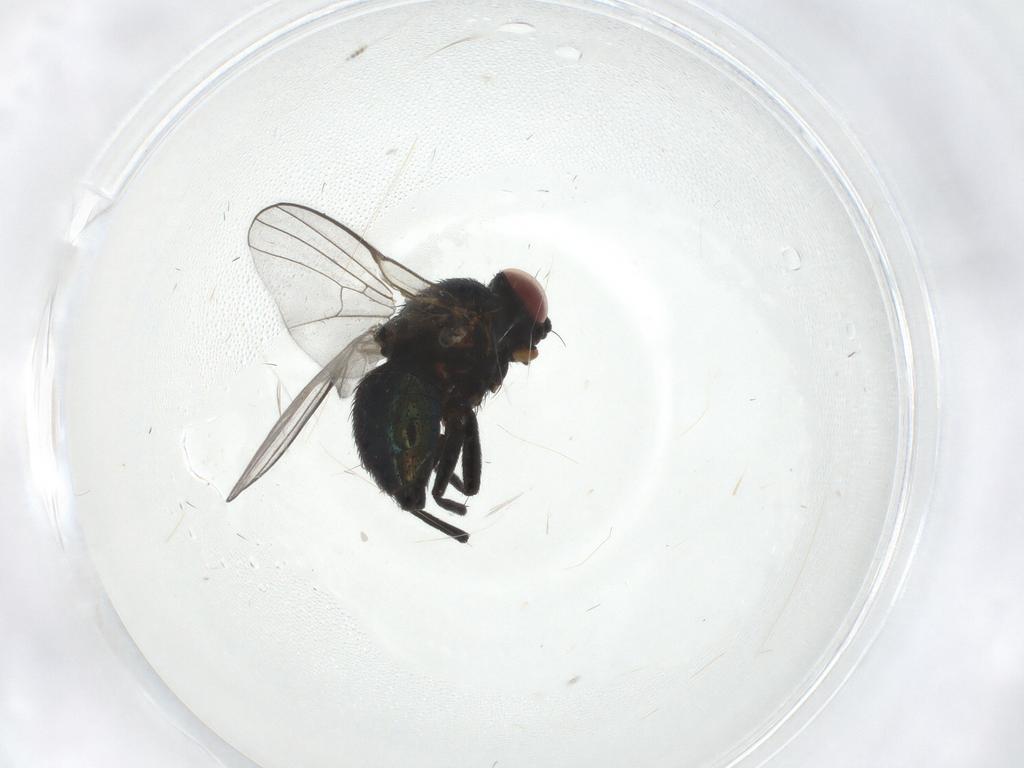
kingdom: Animalia
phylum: Arthropoda
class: Insecta
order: Diptera
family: Agromyzidae
